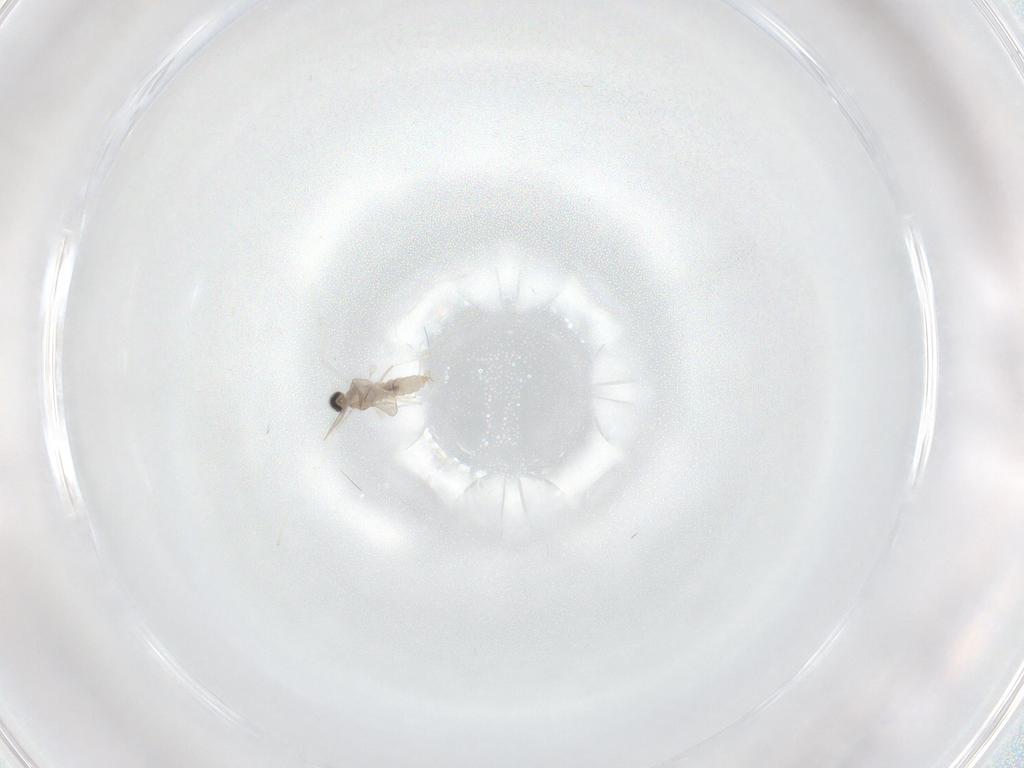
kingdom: Animalia
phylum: Arthropoda
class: Insecta
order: Diptera
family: Cecidomyiidae
